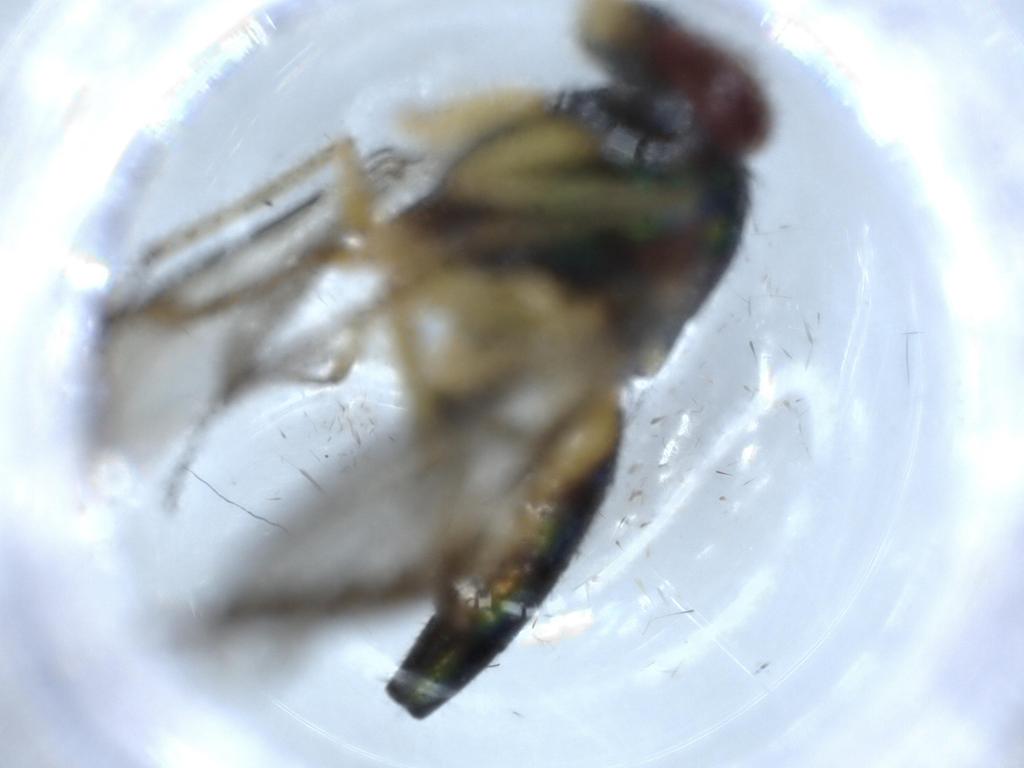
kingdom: Animalia
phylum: Arthropoda
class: Insecta
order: Diptera
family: Dolichopodidae
